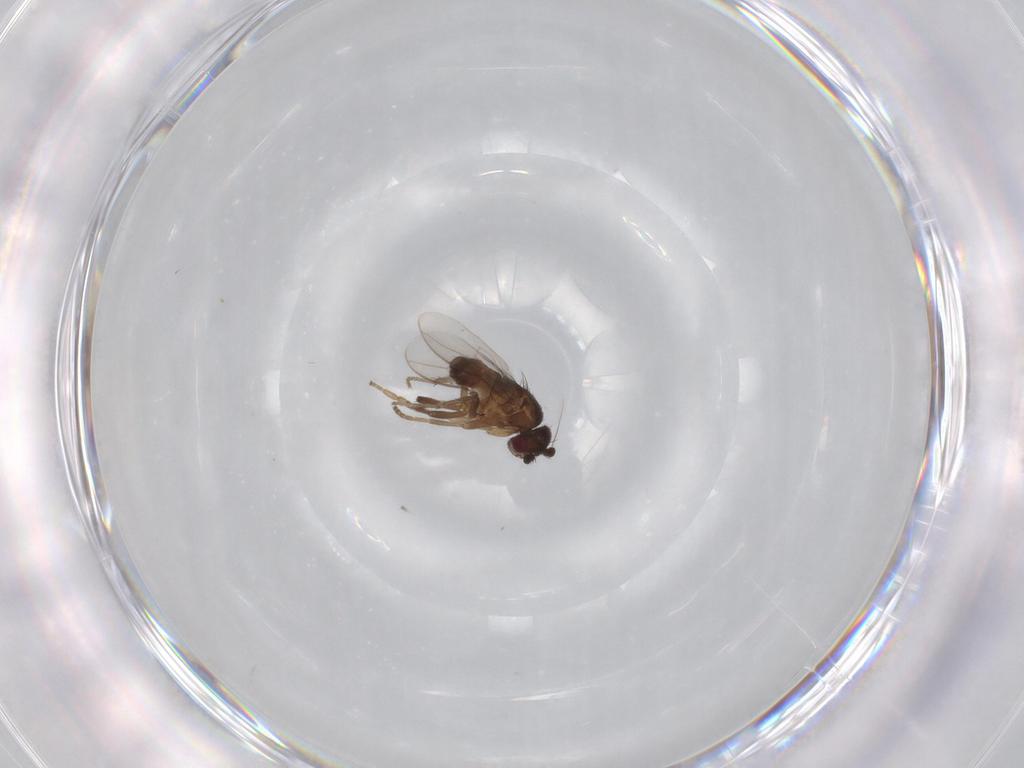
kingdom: Animalia
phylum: Arthropoda
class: Insecta
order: Diptera
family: Sphaeroceridae
